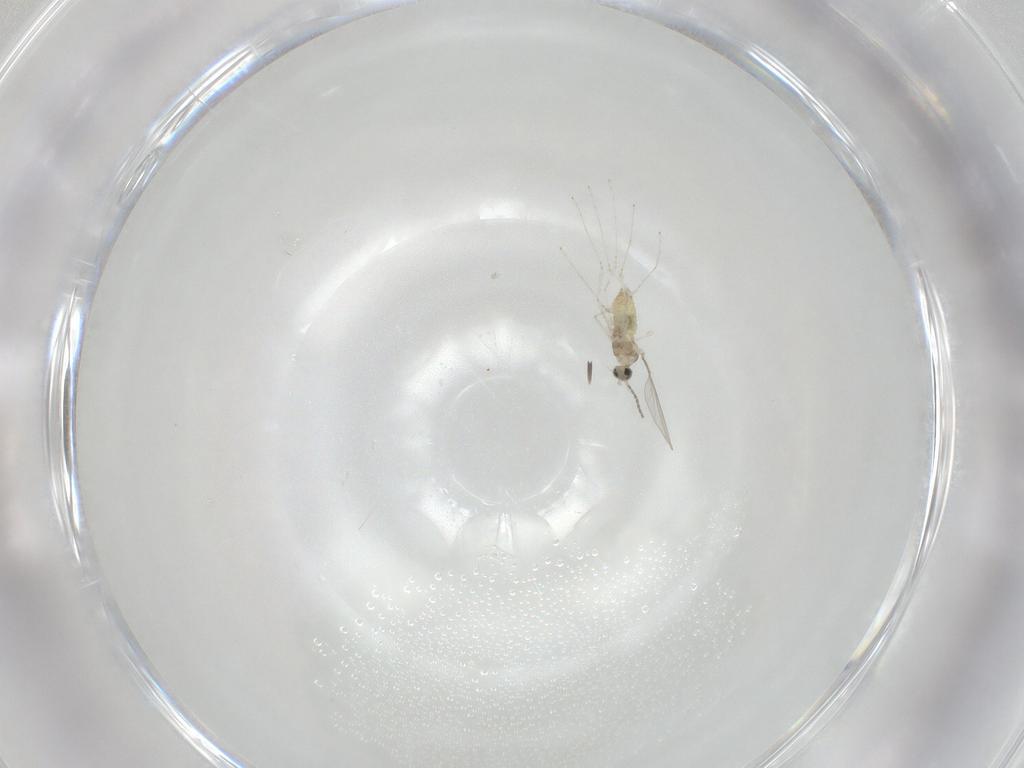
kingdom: Animalia
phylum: Arthropoda
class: Insecta
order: Diptera
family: Cecidomyiidae
